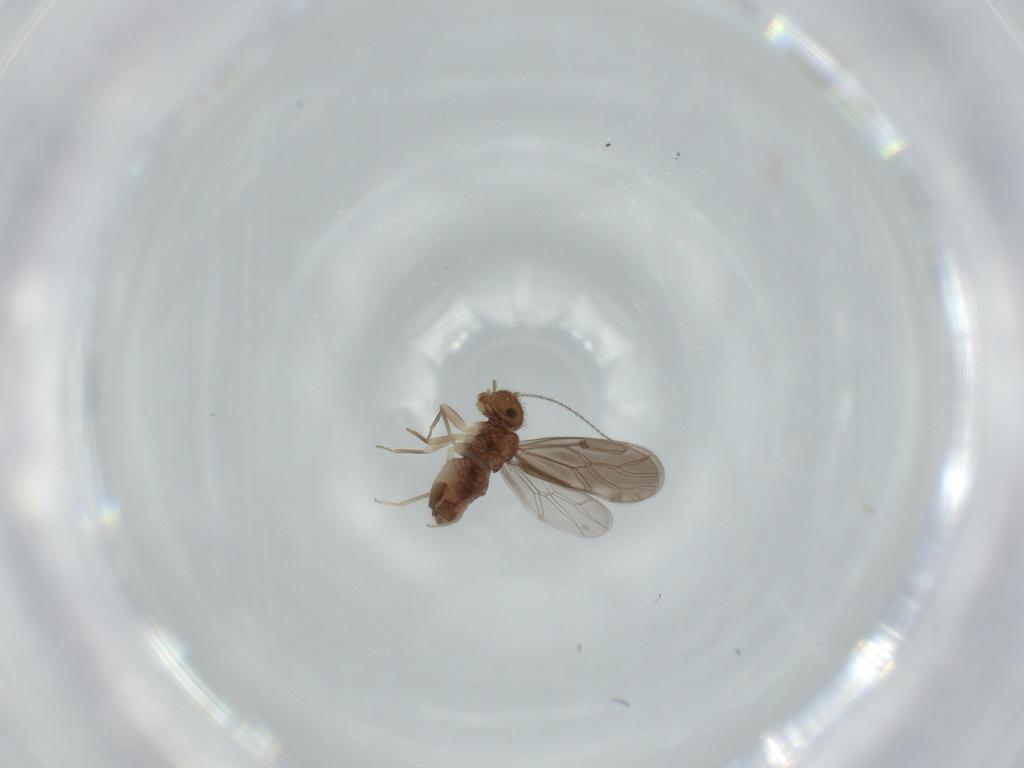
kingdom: Animalia
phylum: Arthropoda
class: Insecta
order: Psocodea
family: Ectopsocidae
